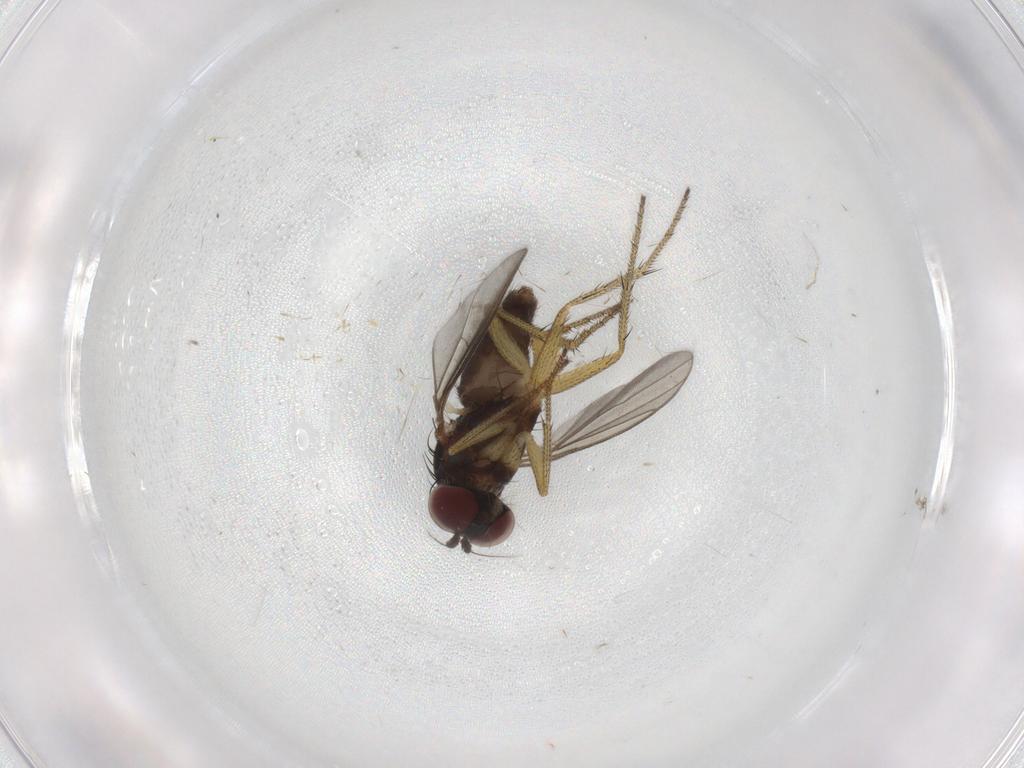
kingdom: Animalia
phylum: Arthropoda
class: Insecta
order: Diptera
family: Cecidomyiidae
